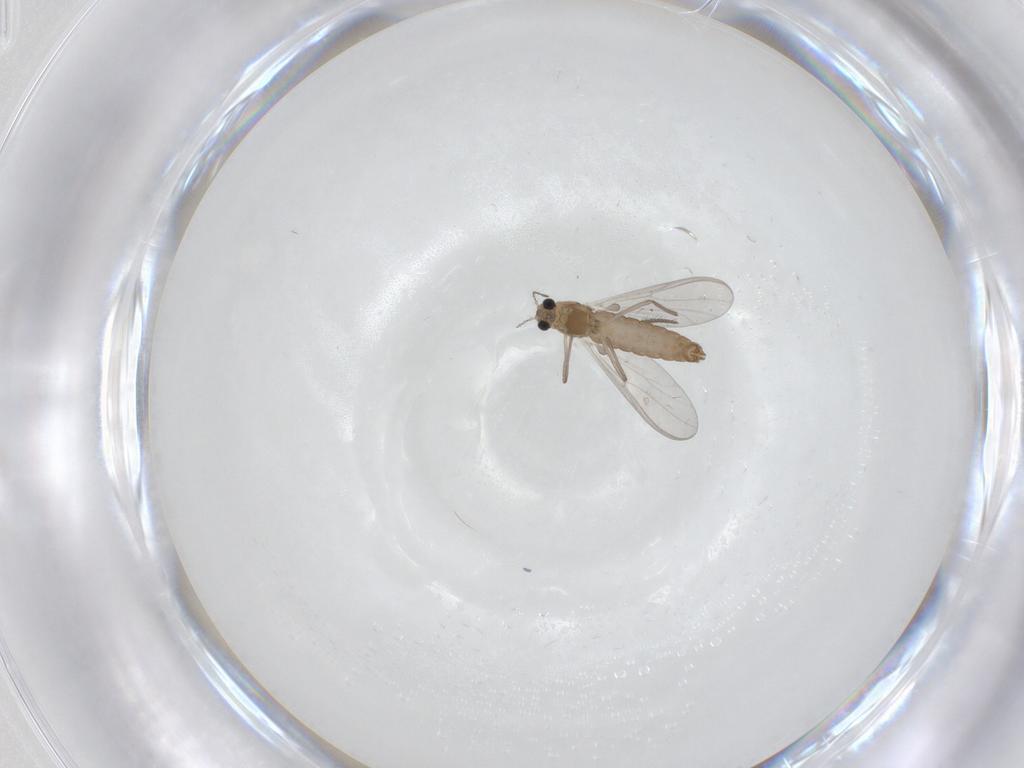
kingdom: Animalia
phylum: Arthropoda
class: Insecta
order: Diptera
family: Chironomidae
